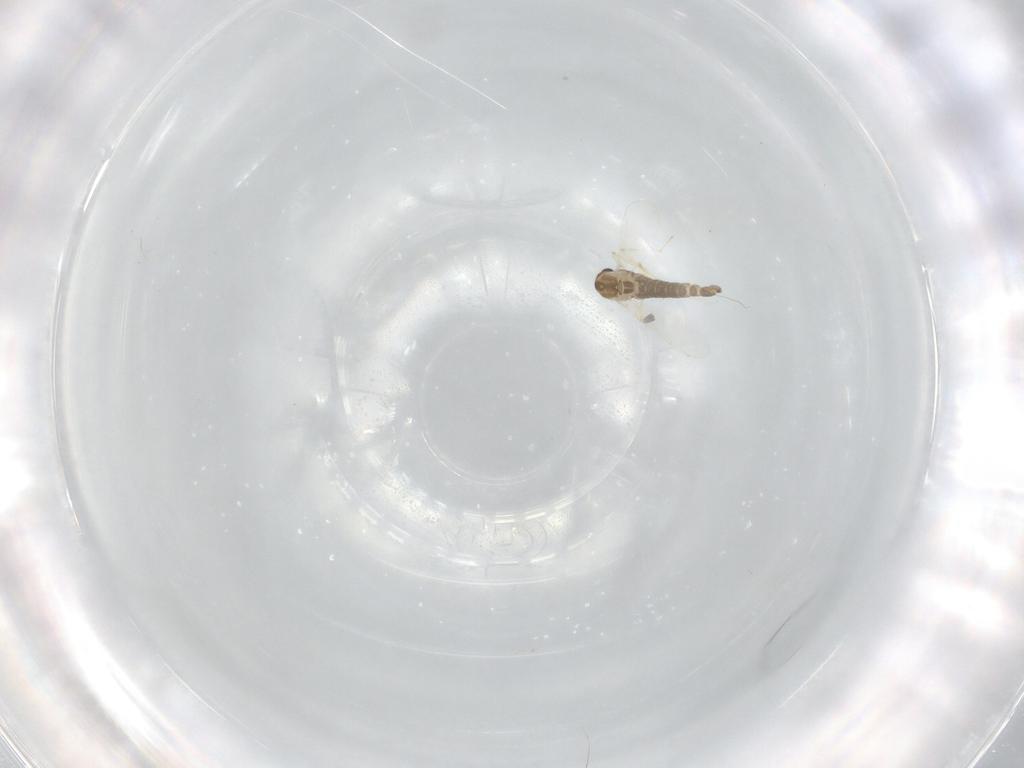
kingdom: Animalia
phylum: Arthropoda
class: Insecta
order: Diptera
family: Chironomidae
